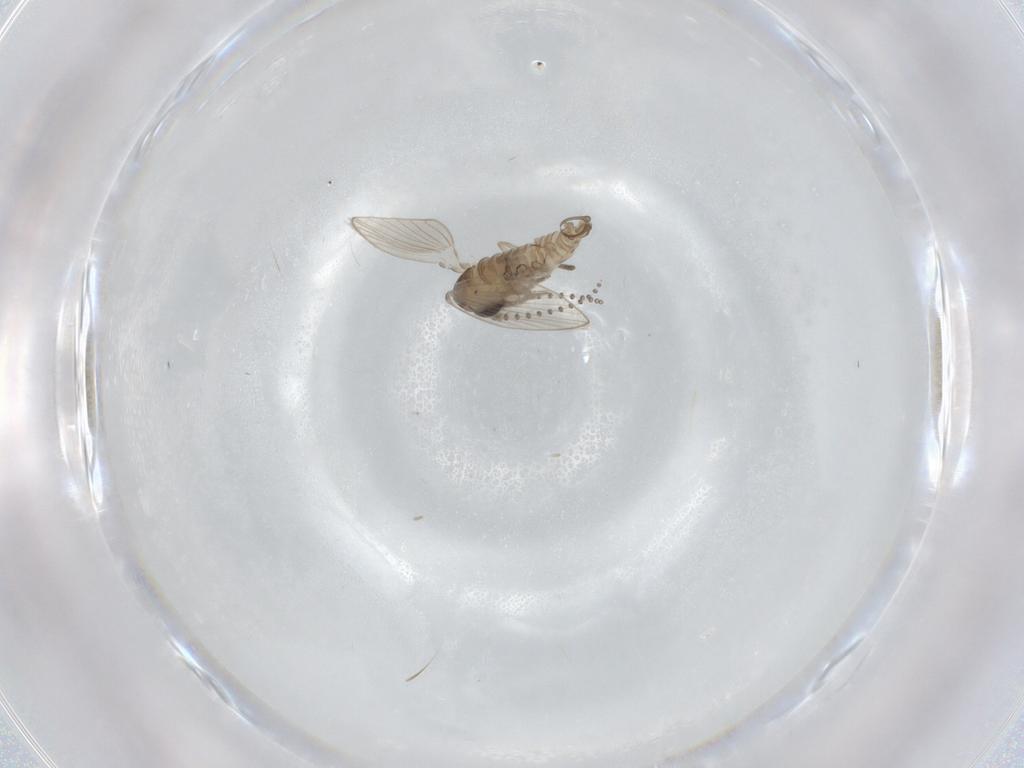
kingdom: Animalia
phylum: Arthropoda
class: Insecta
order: Diptera
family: Psychodidae
